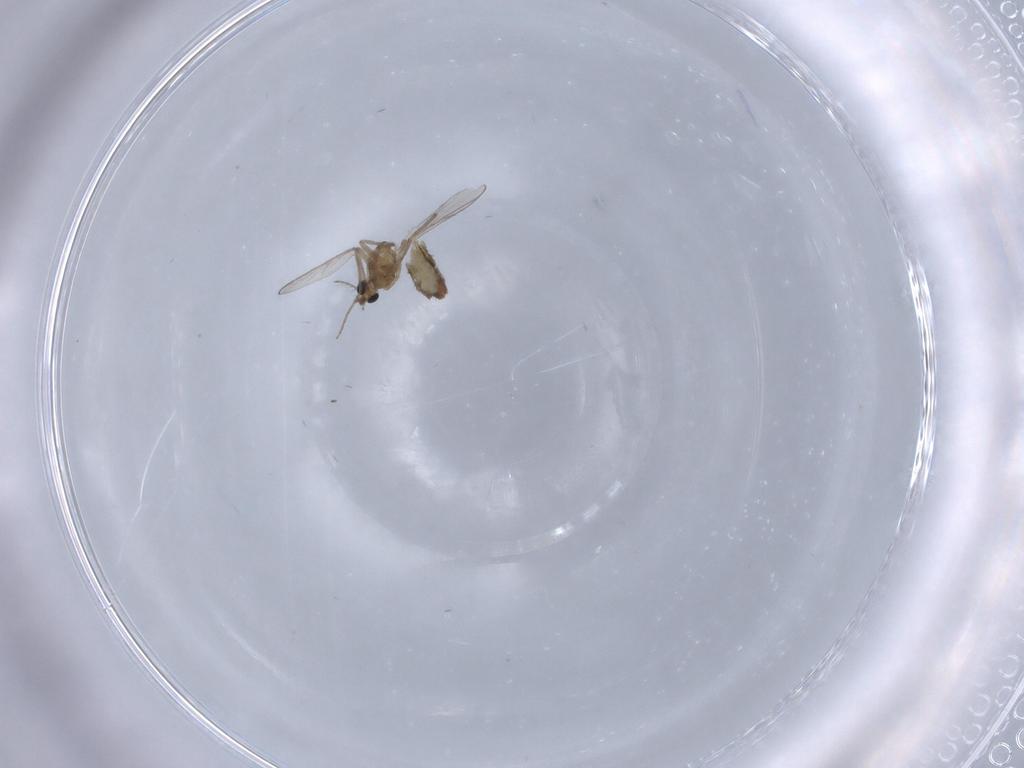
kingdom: Animalia
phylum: Arthropoda
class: Insecta
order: Diptera
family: Chironomidae
